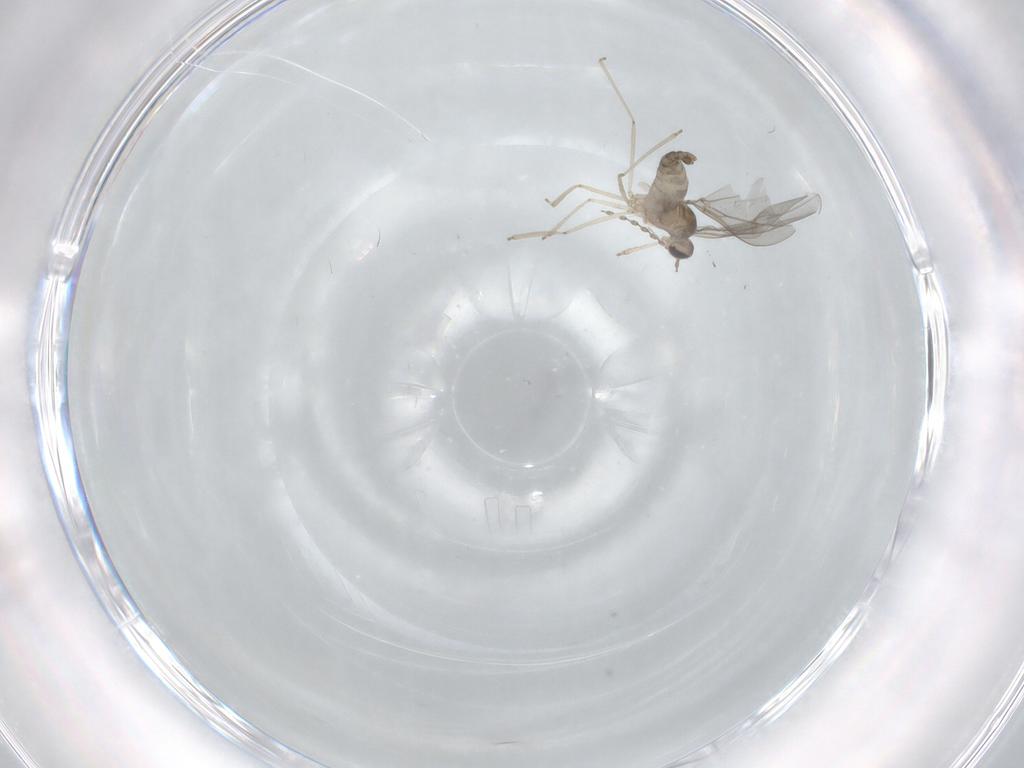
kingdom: Animalia
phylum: Arthropoda
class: Insecta
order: Diptera
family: Cecidomyiidae
